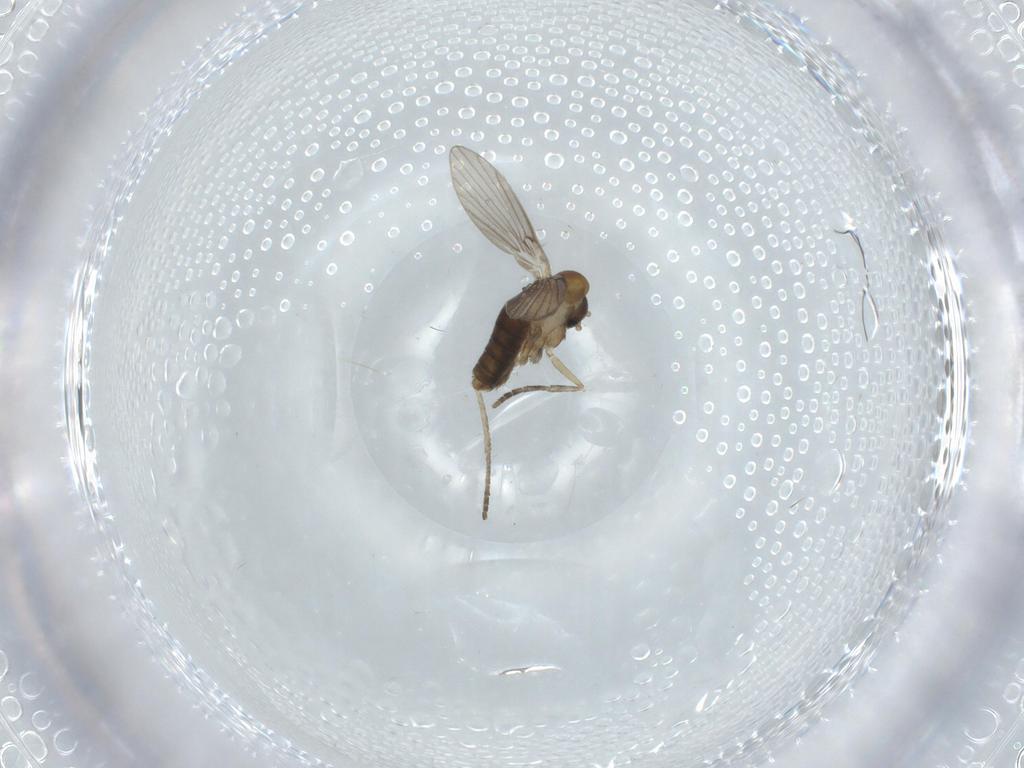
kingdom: Animalia
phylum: Arthropoda
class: Insecta
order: Diptera
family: Ceratopogonidae
